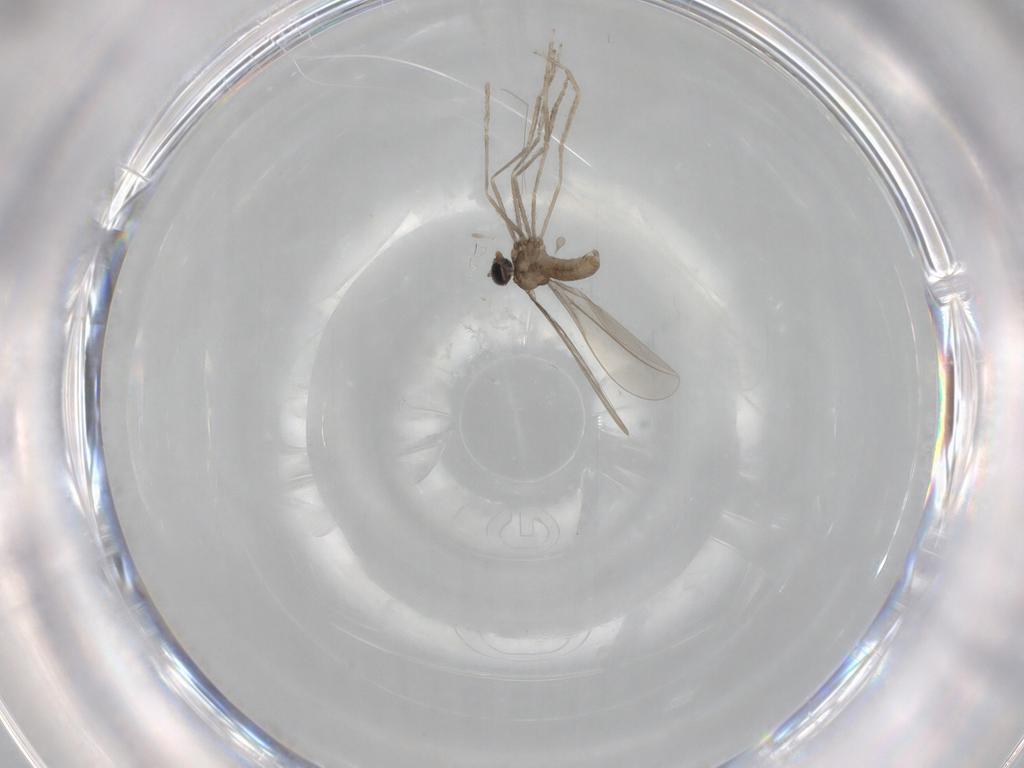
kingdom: Animalia
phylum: Arthropoda
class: Insecta
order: Diptera
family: Cecidomyiidae
